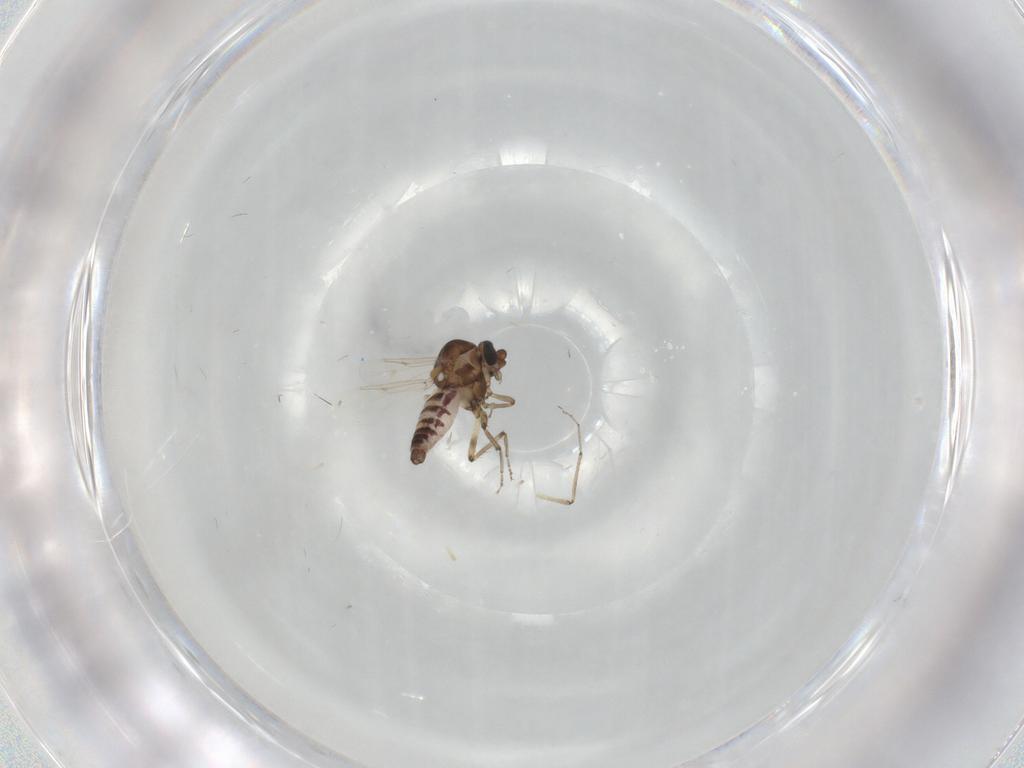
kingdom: Animalia
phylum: Arthropoda
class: Insecta
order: Diptera
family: Ceratopogonidae
